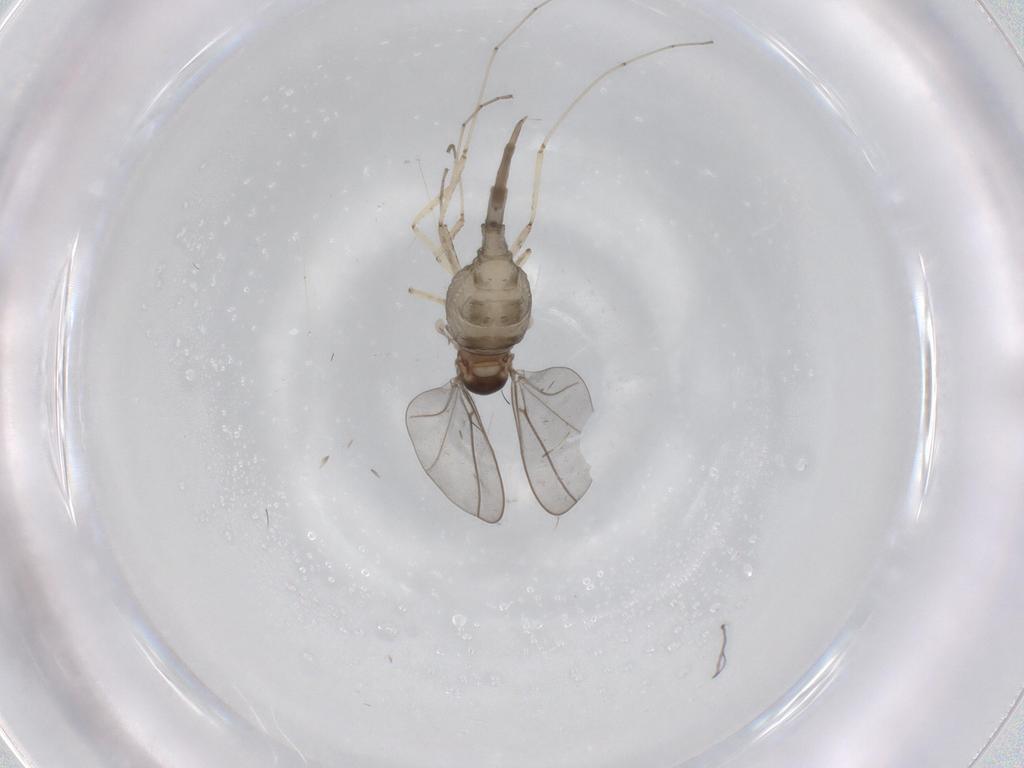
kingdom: Animalia
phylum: Arthropoda
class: Insecta
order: Diptera
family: Cecidomyiidae
